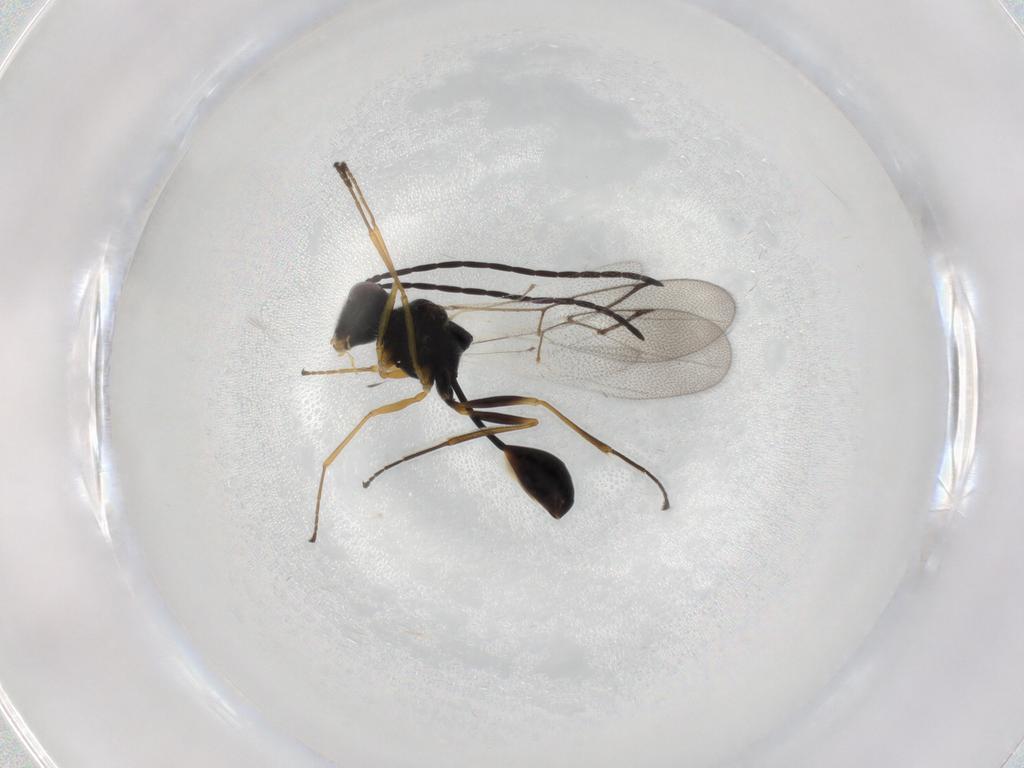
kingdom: Animalia
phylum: Arthropoda
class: Insecta
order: Hymenoptera
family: Figitidae
